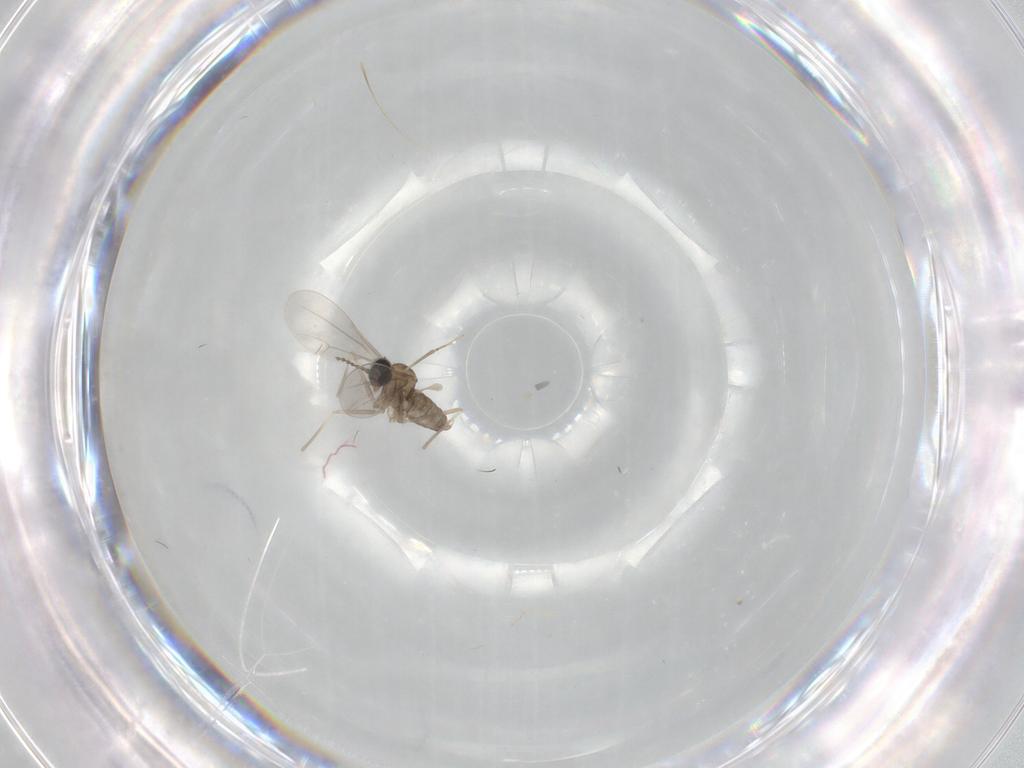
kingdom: Animalia
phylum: Arthropoda
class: Insecta
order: Diptera
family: Cecidomyiidae
